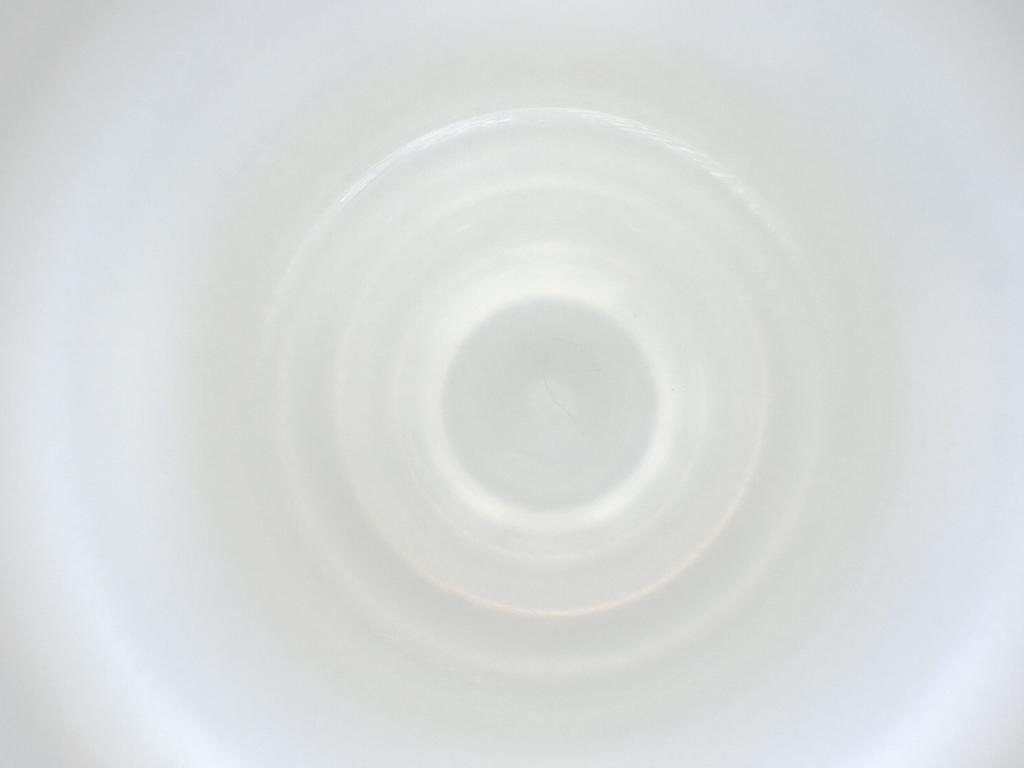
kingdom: Animalia
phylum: Arthropoda
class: Insecta
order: Diptera
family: Cecidomyiidae
